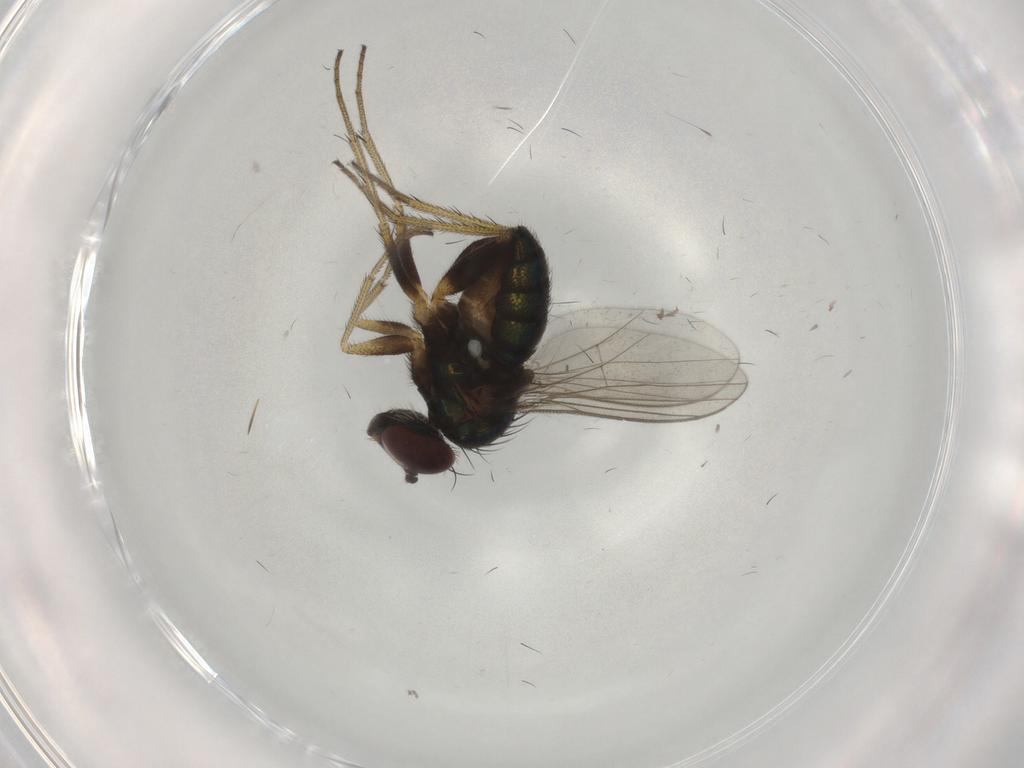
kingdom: Animalia
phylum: Arthropoda
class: Insecta
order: Diptera
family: Dolichopodidae
